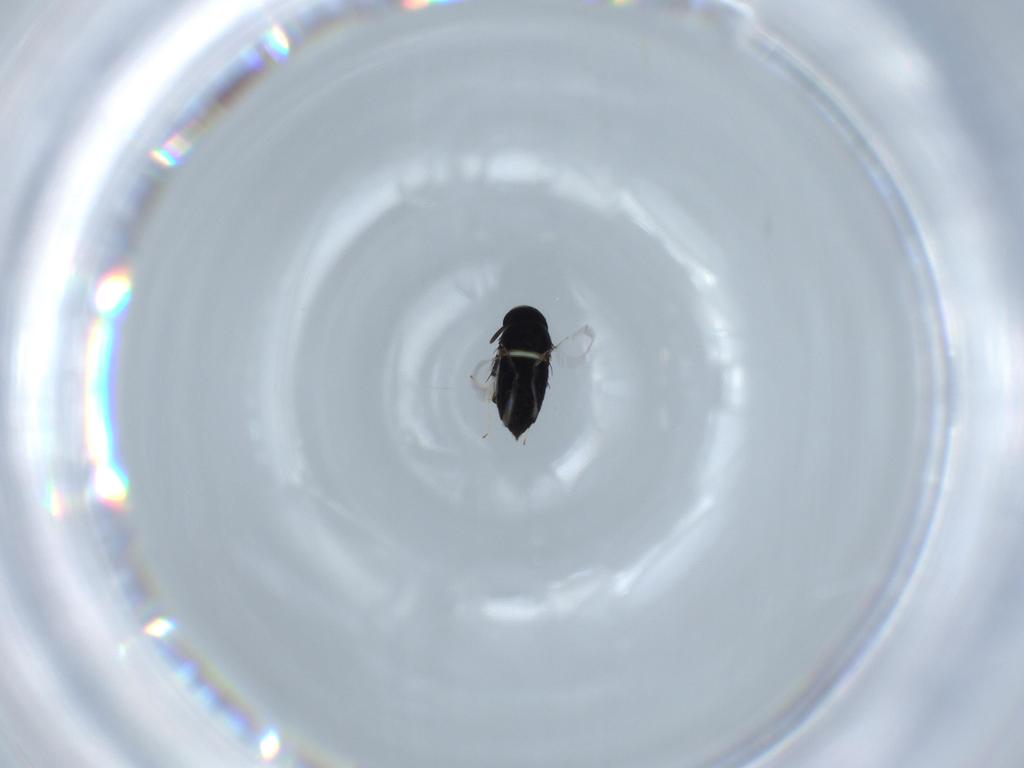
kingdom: Animalia
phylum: Arthropoda
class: Insecta
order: Hymenoptera
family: Signiphoridae
